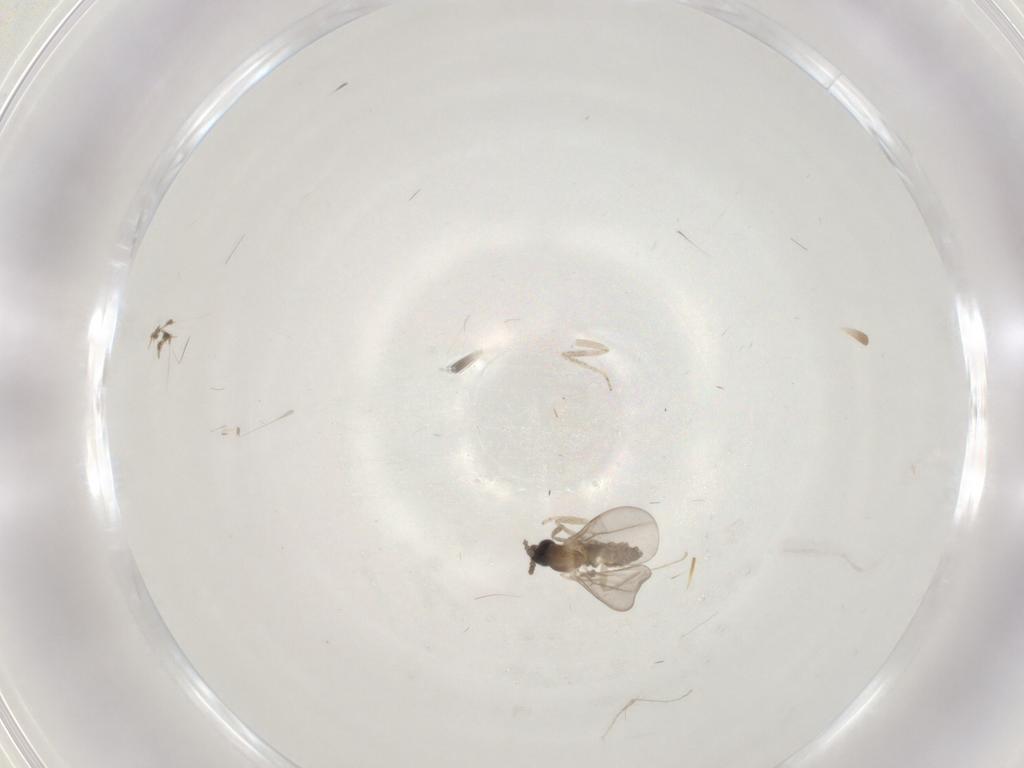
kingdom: Animalia
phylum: Arthropoda
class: Insecta
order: Diptera
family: Cecidomyiidae
